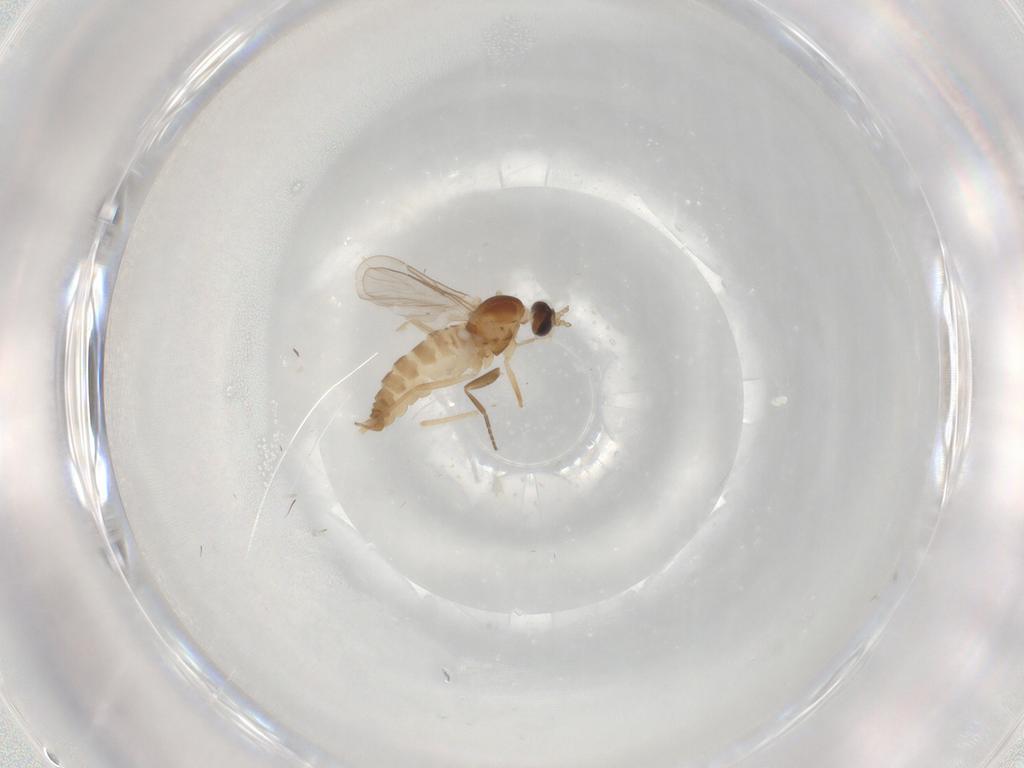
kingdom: Animalia
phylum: Arthropoda
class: Insecta
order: Diptera
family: Cecidomyiidae
